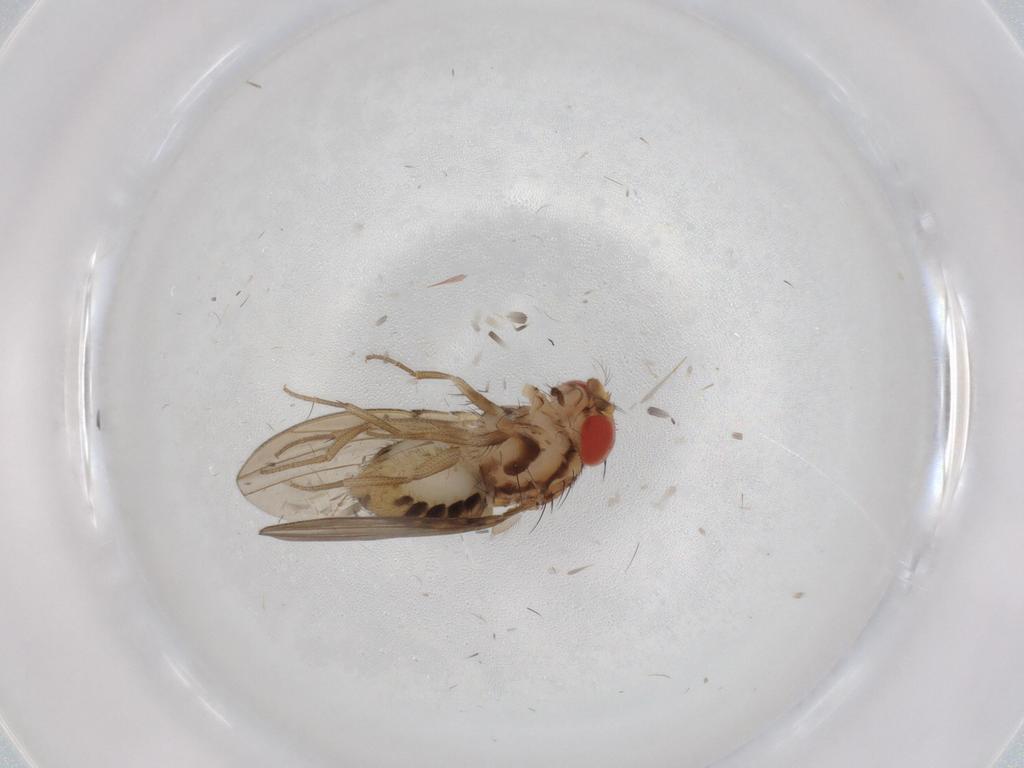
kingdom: Animalia
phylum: Arthropoda
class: Insecta
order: Diptera
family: Drosophilidae
